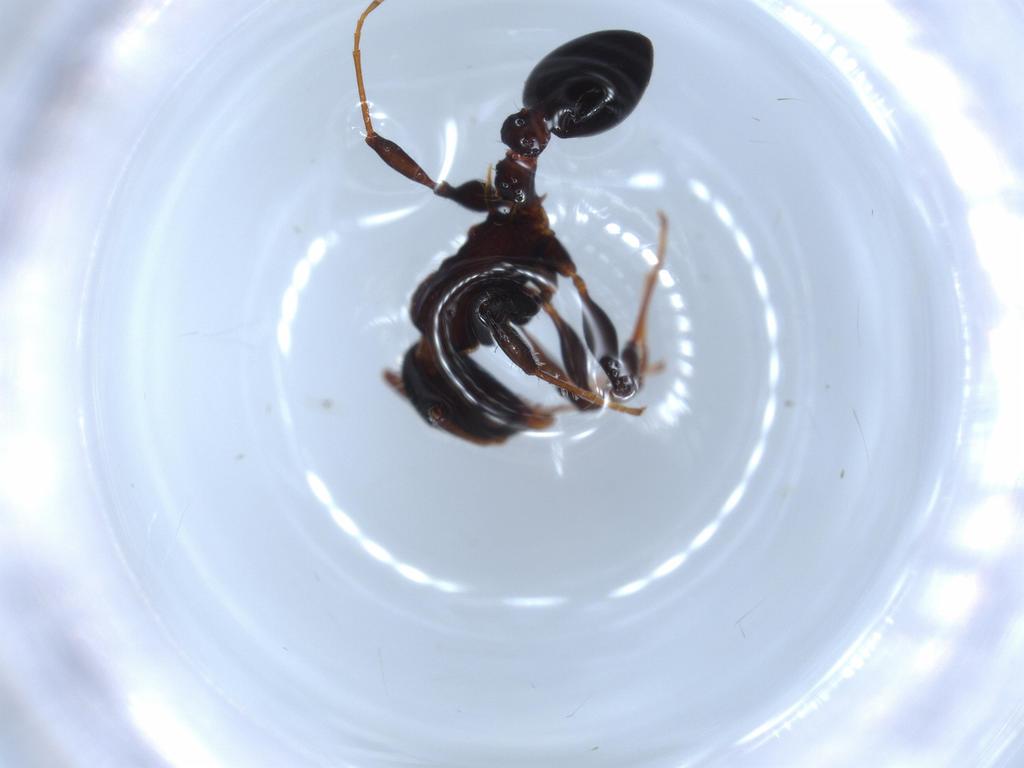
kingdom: Animalia
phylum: Arthropoda
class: Insecta
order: Hymenoptera
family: Formicidae
